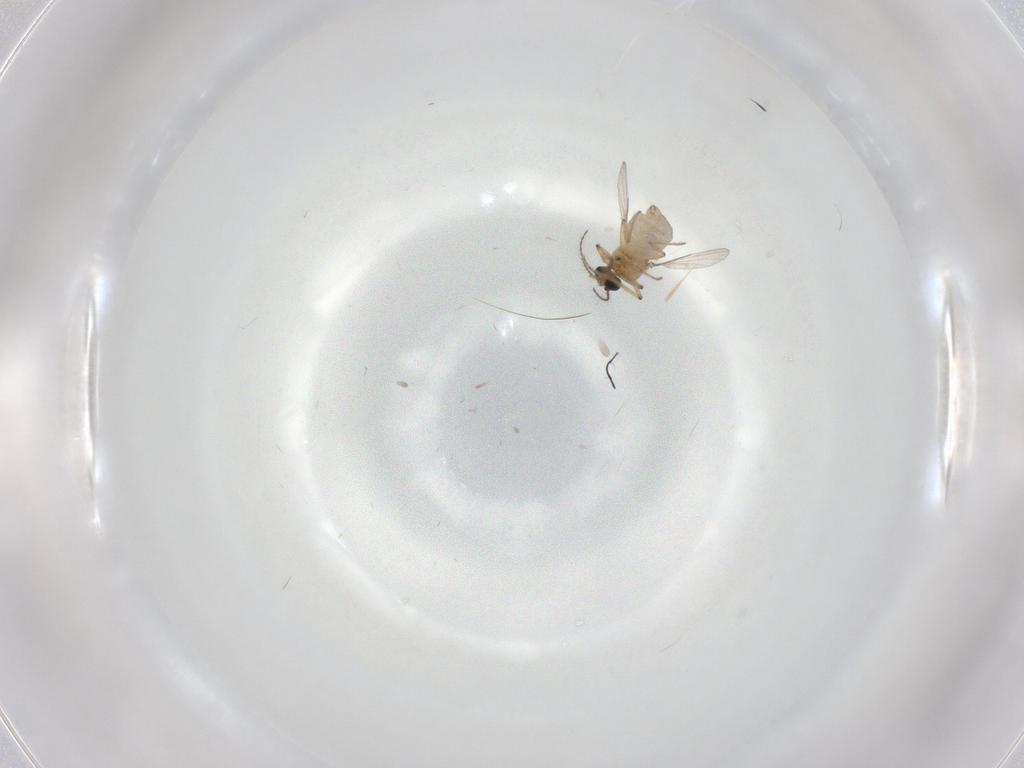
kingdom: Animalia
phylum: Arthropoda
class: Insecta
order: Diptera
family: Ceratopogonidae
